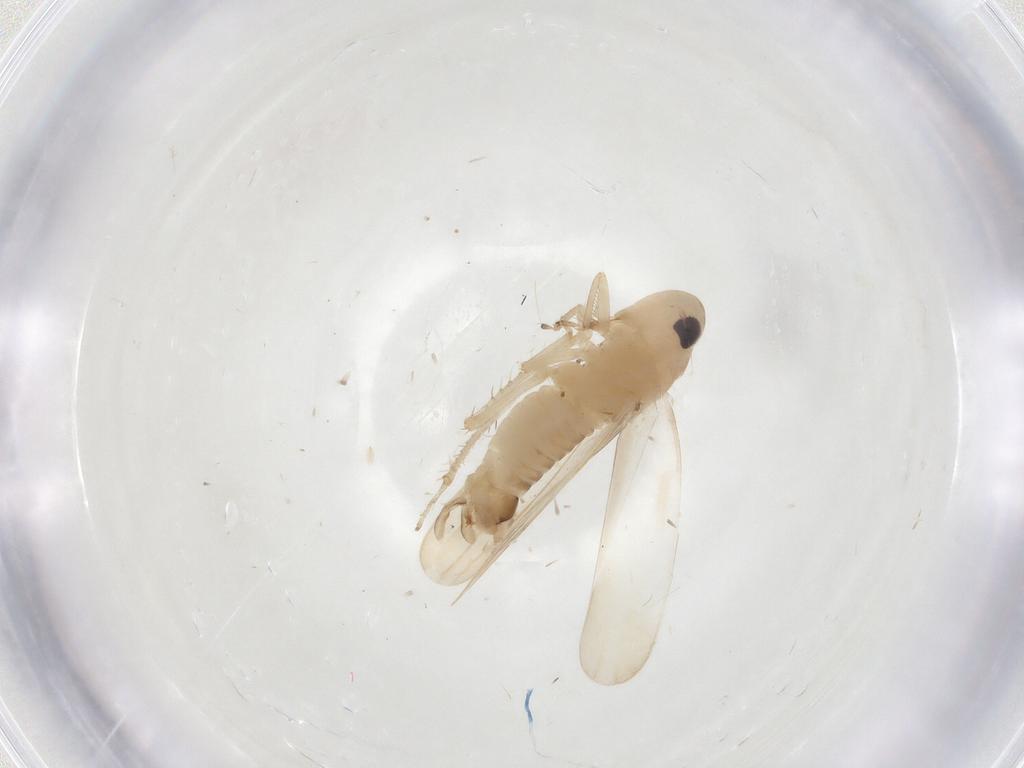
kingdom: Animalia
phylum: Arthropoda
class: Insecta
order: Hemiptera
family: Cicadellidae
